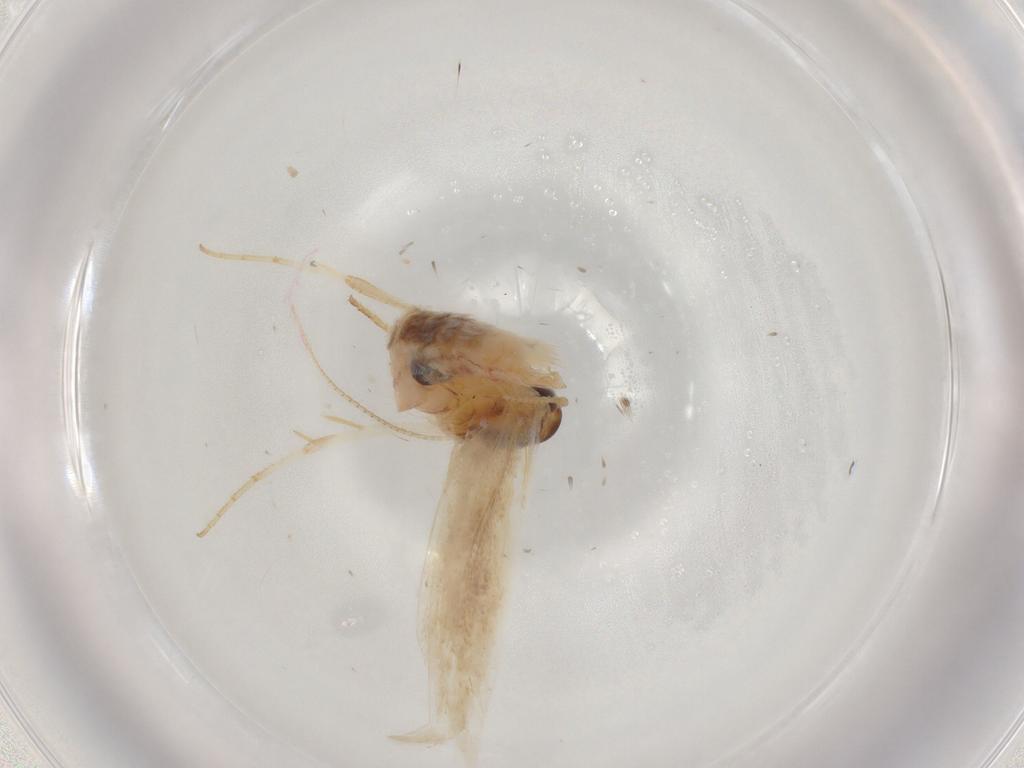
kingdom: Animalia
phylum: Arthropoda
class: Insecta
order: Lepidoptera
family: Gelechiidae
